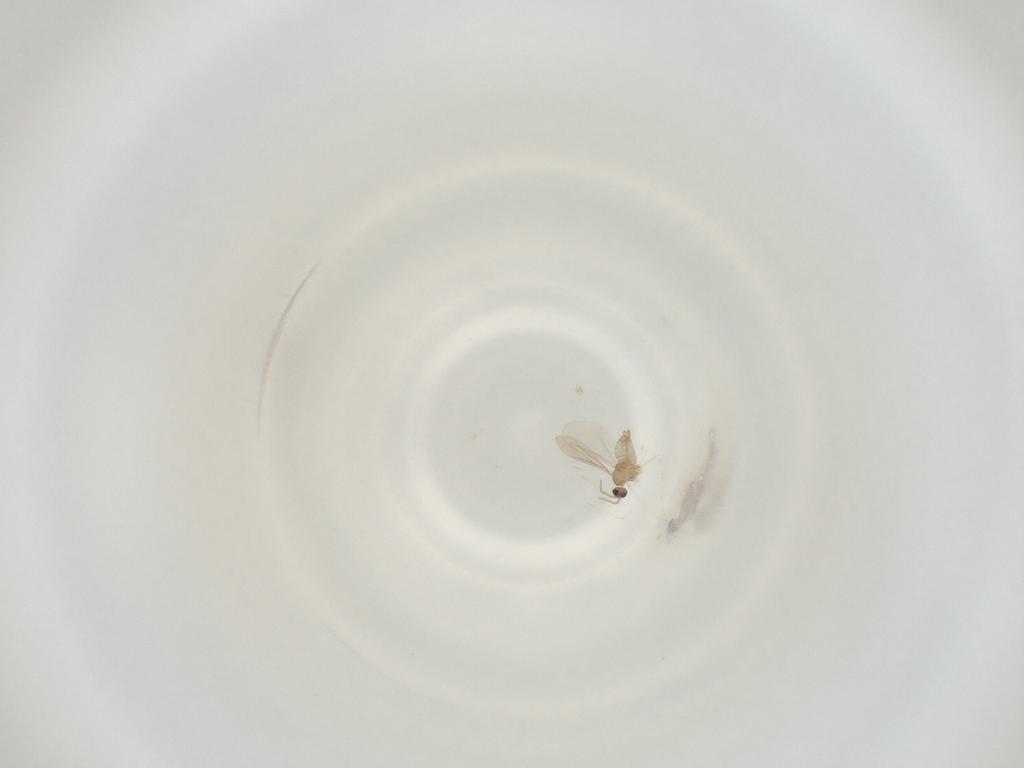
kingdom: Animalia
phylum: Arthropoda
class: Insecta
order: Diptera
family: Cecidomyiidae
